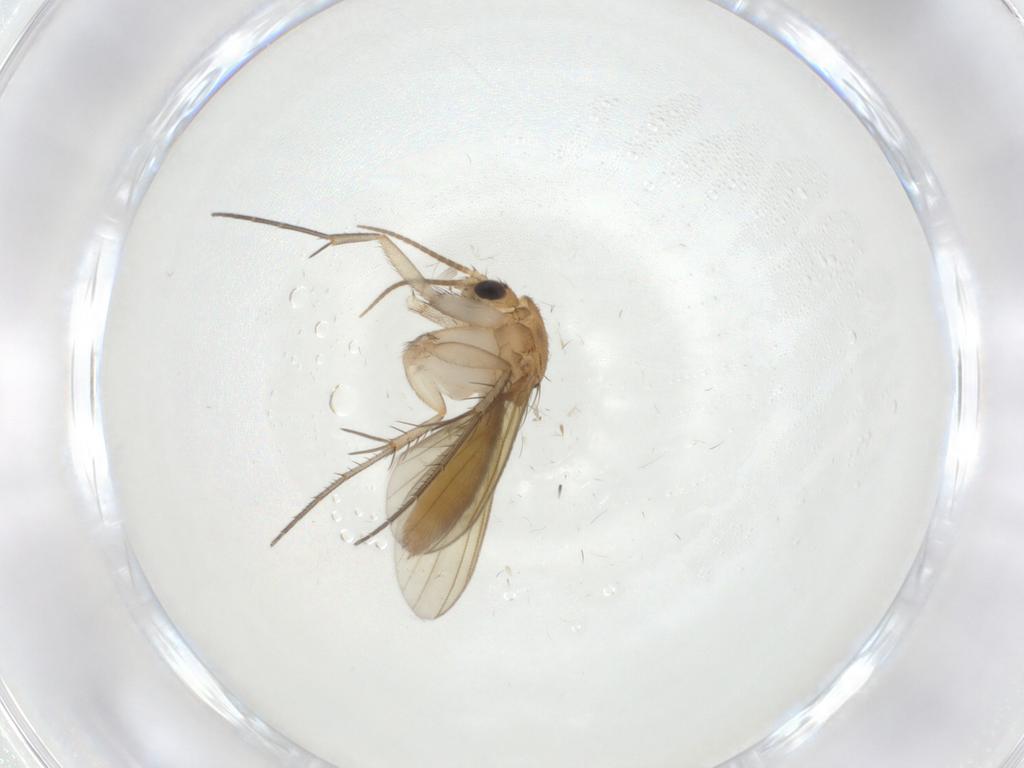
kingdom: Animalia
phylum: Arthropoda
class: Insecta
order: Diptera
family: Mycetophilidae
